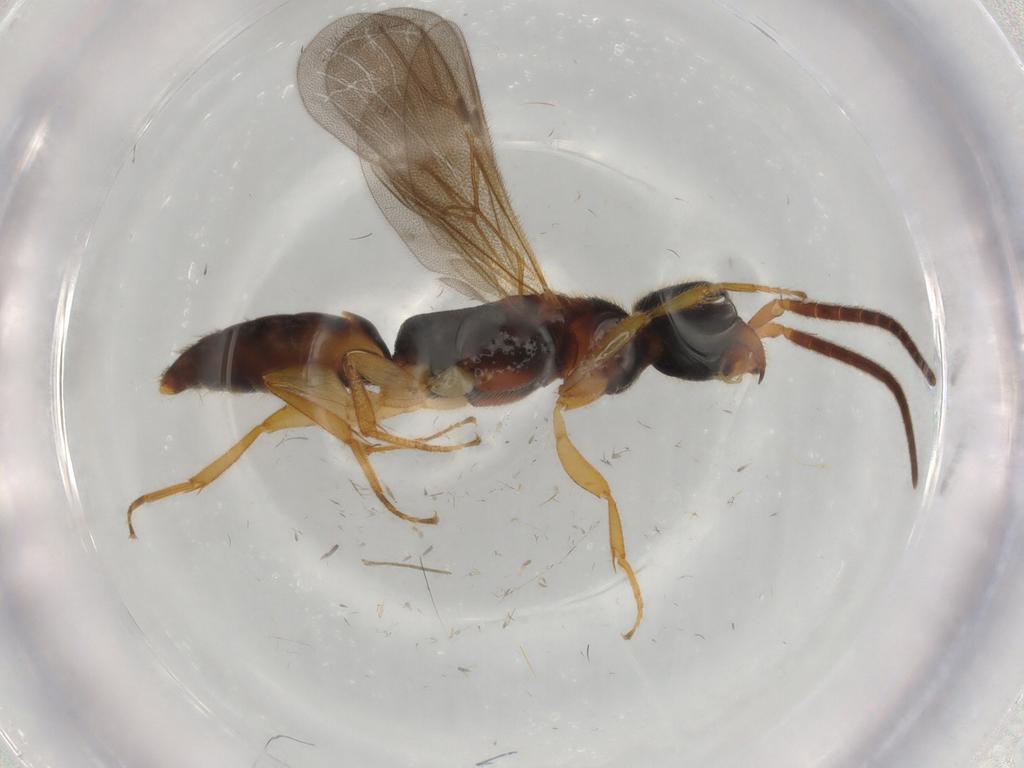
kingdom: Animalia
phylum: Arthropoda
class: Insecta
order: Hymenoptera
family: Bethylidae
